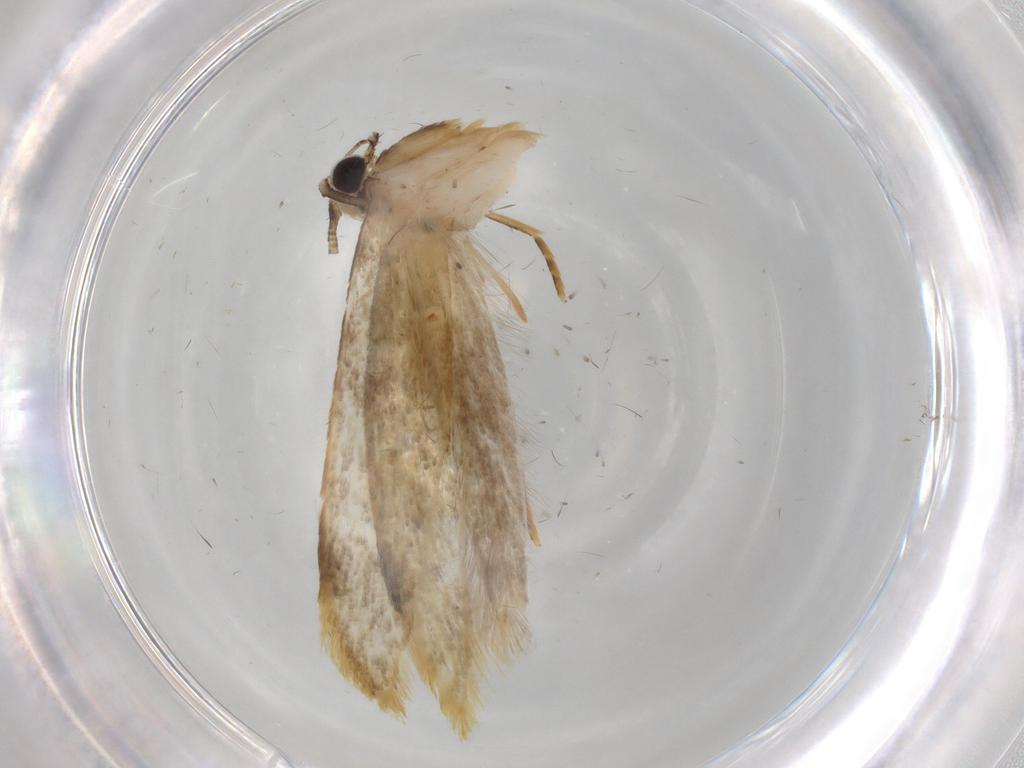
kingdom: Animalia
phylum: Arthropoda
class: Insecta
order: Lepidoptera
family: Tineidae
